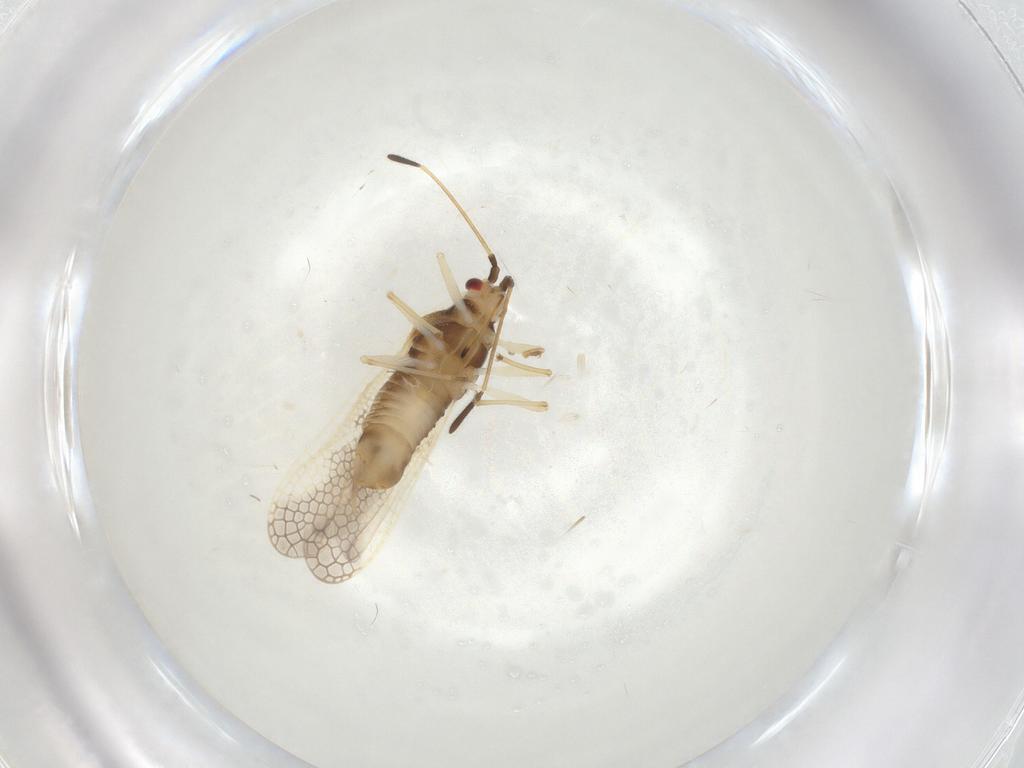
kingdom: Animalia
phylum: Arthropoda
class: Insecta
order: Hemiptera
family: Tingidae
